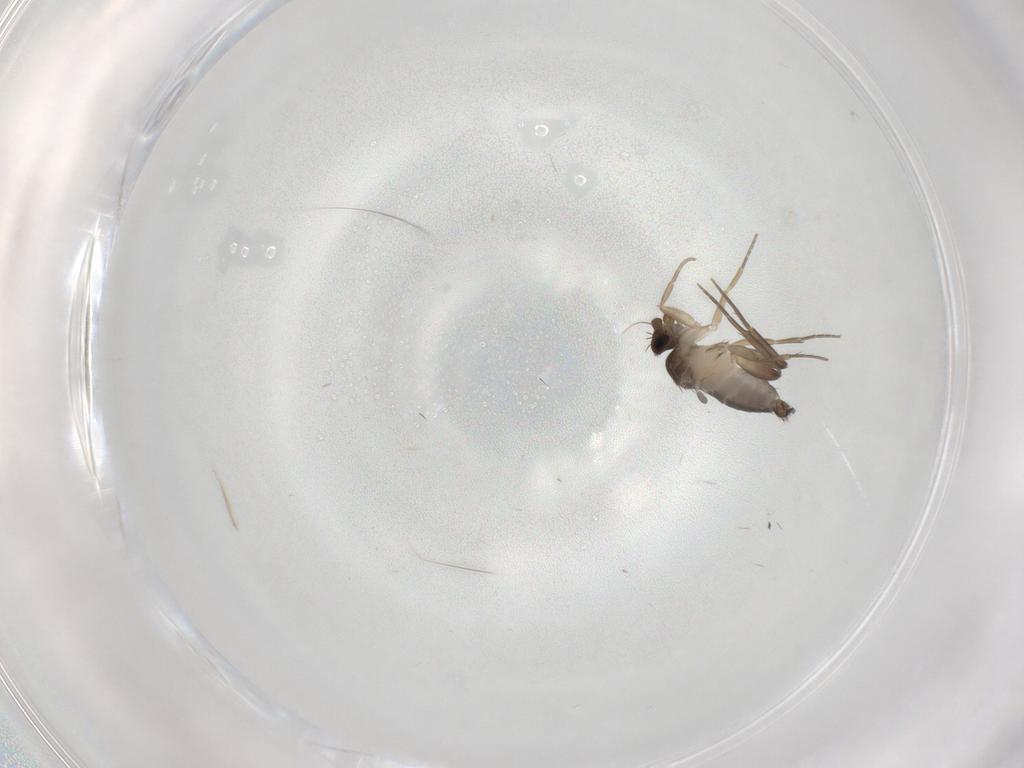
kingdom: Animalia
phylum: Arthropoda
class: Insecta
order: Diptera
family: Phoridae
